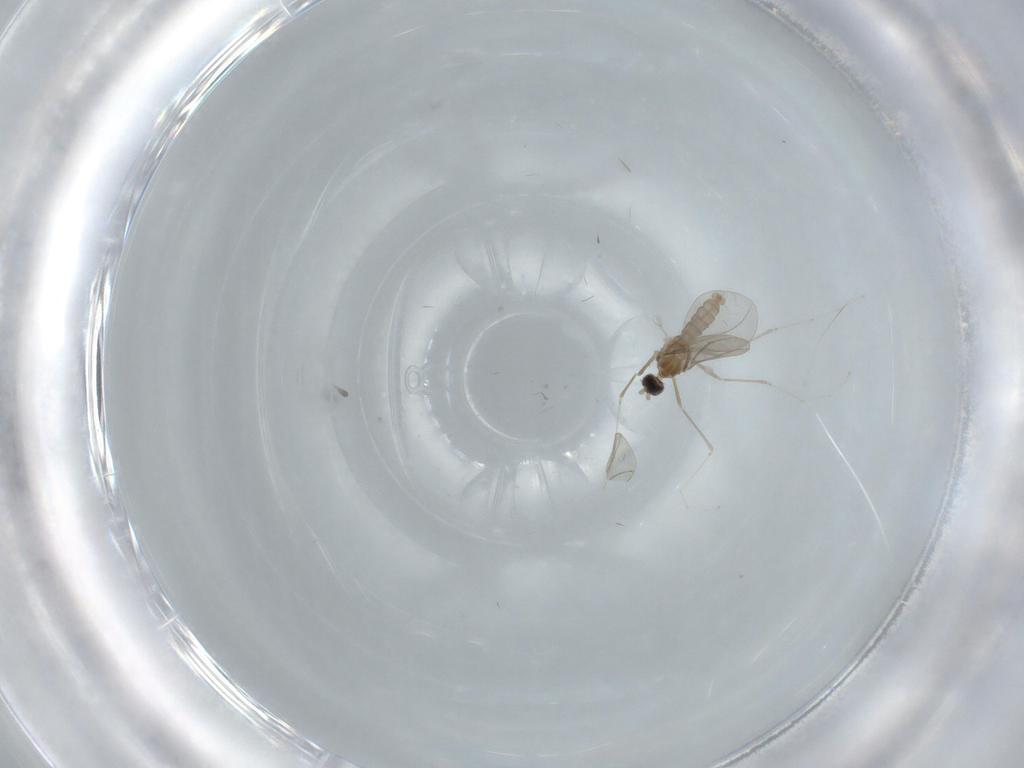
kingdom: Animalia
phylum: Arthropoda
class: Insecta
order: Diptera
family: Cecidomyiidae
